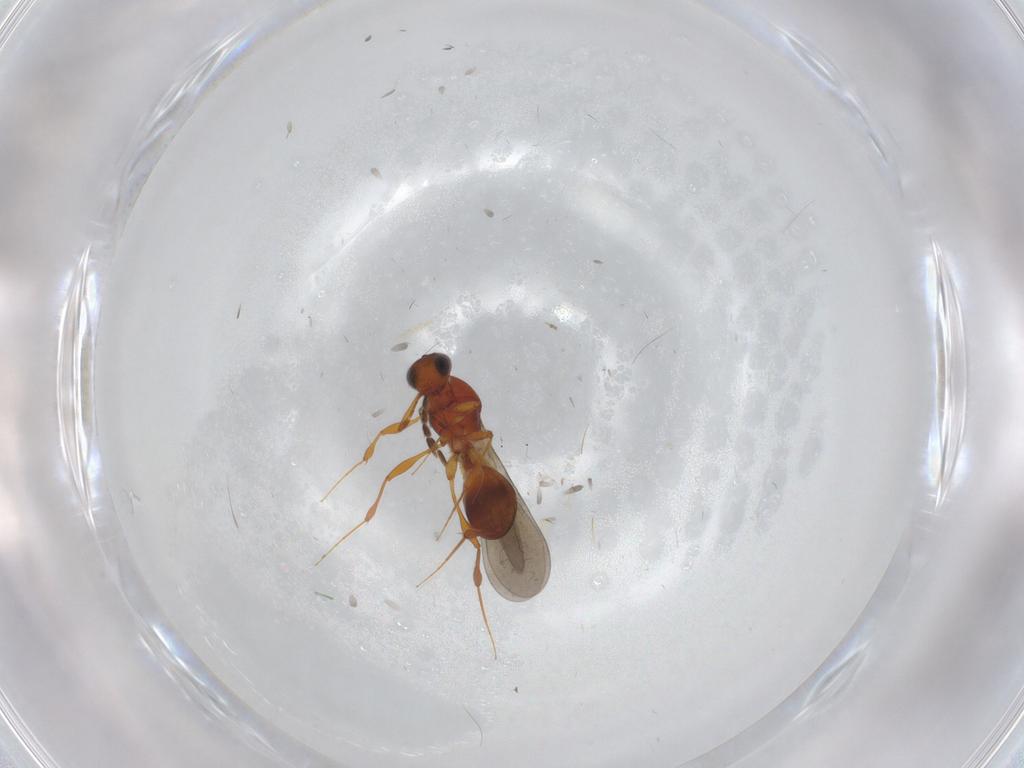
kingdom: Animalia
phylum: Arthropoda
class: Insecta
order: Hymenoptera
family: Platygastridae
